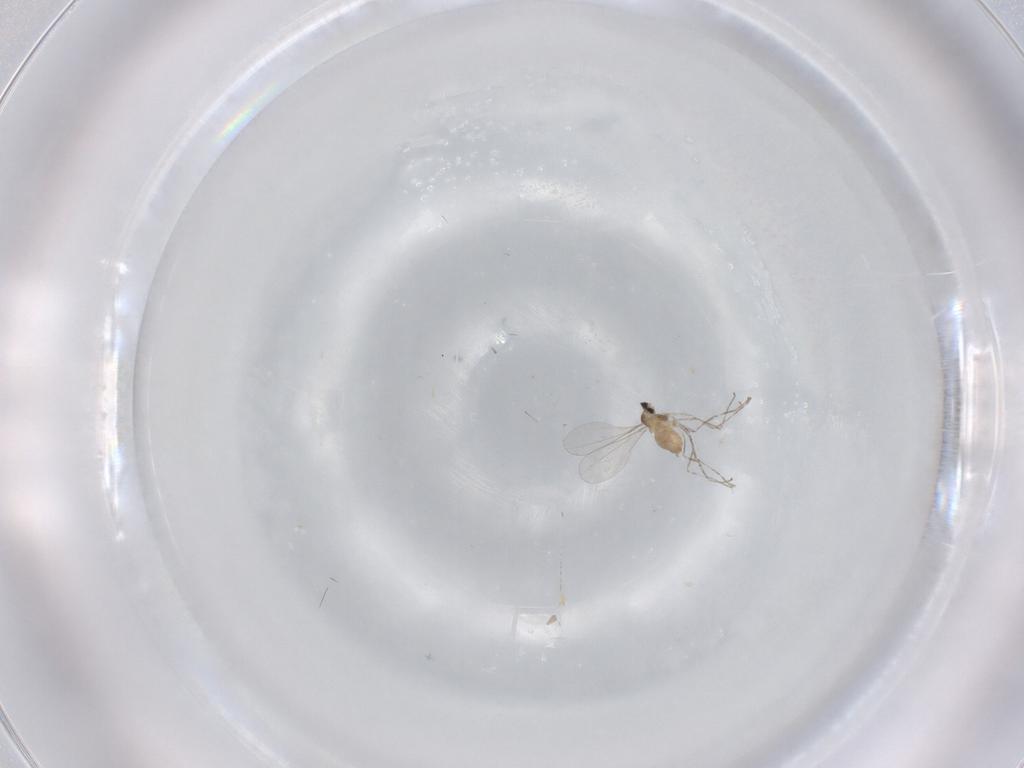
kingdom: Animalia
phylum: Arthropoda
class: Insecta
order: Diptera
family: Cecidomyiidae
